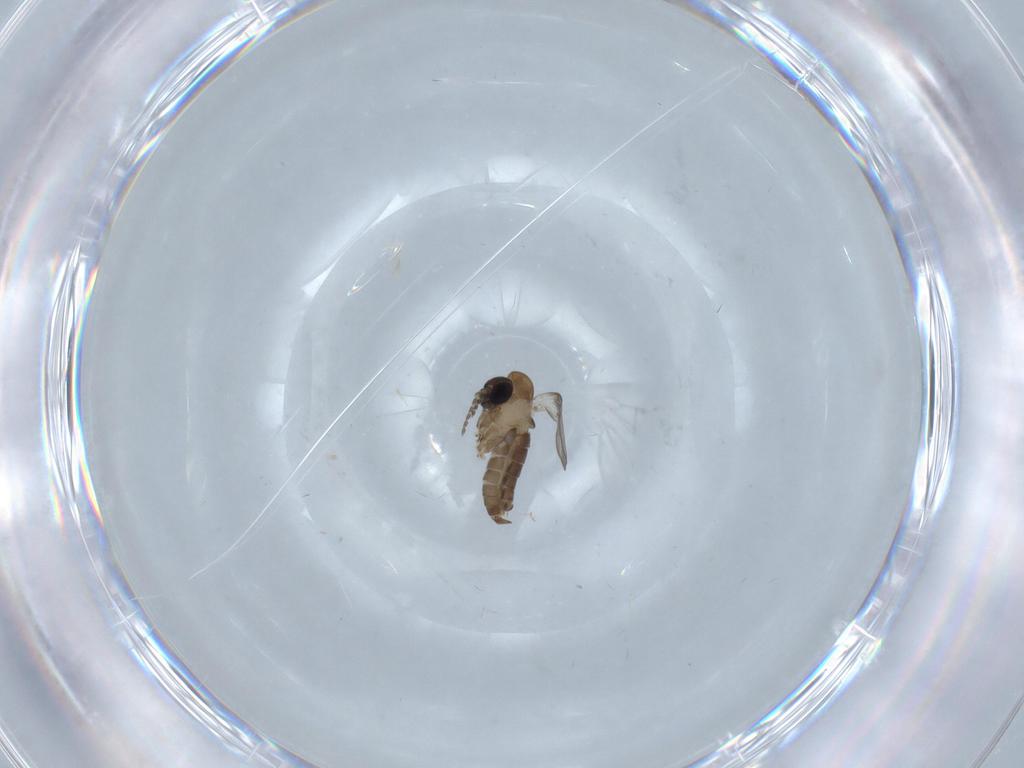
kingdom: Animalia
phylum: Arthropoda
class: Insecta
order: Diptera
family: Psychodidae
